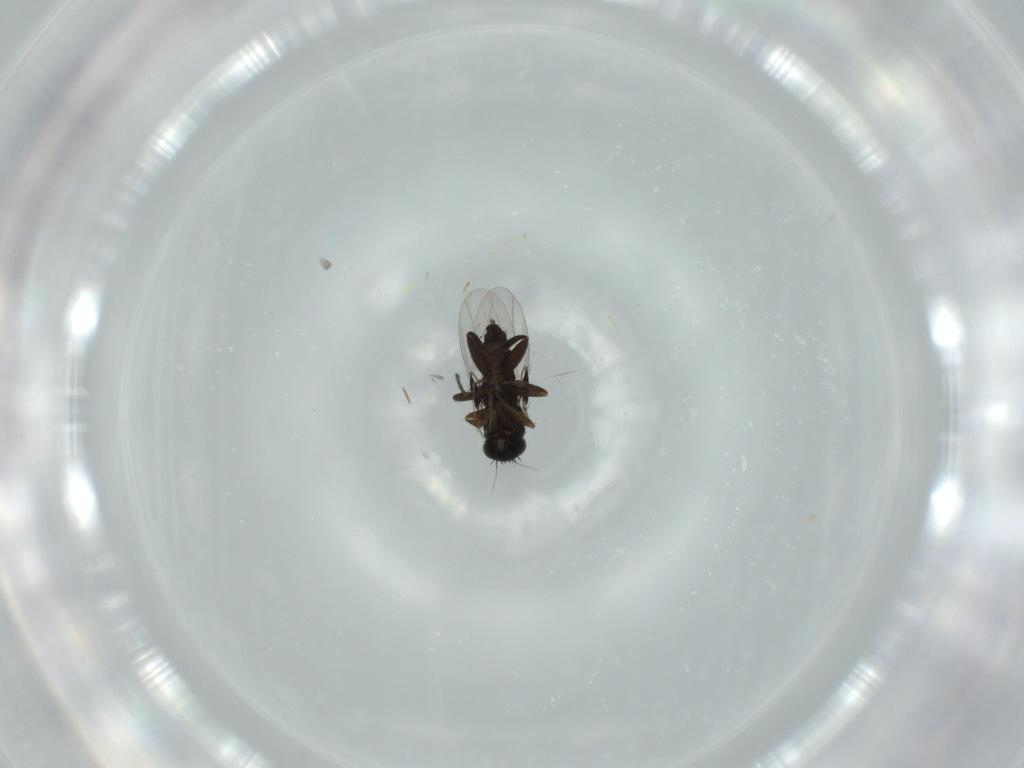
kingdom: Animalia
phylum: Arthropoda
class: Insecta
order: Diptera
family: Phoridae
